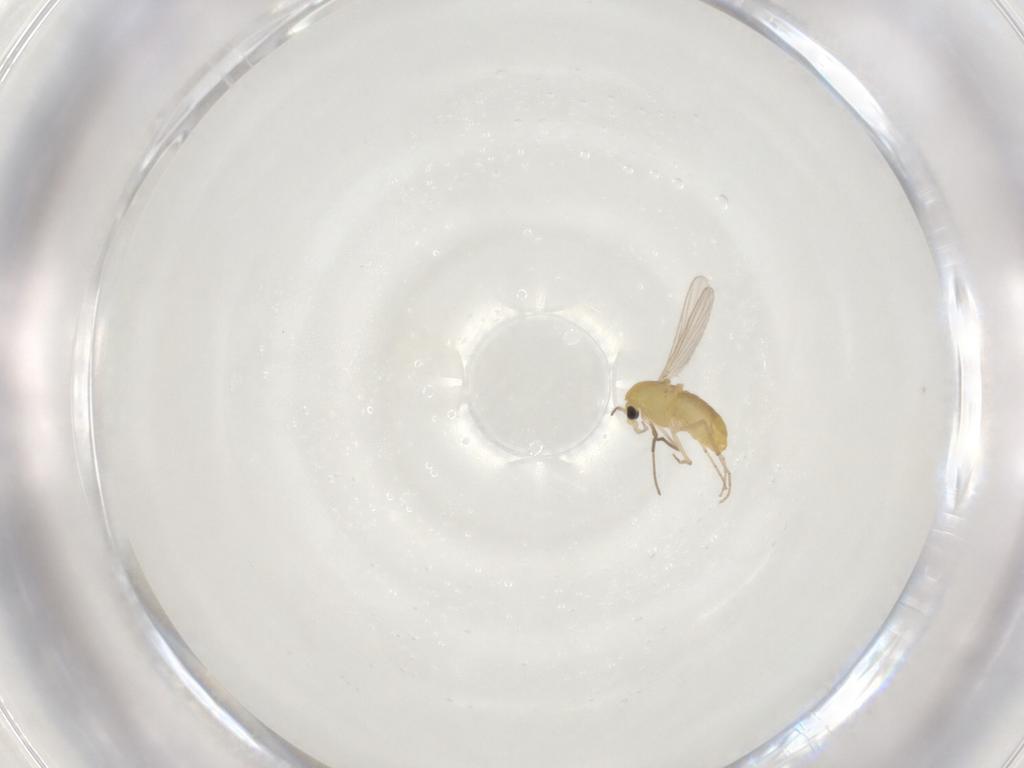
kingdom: Animalia
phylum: Arthropoda
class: Insecta
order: Diptera
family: Chironomidae
